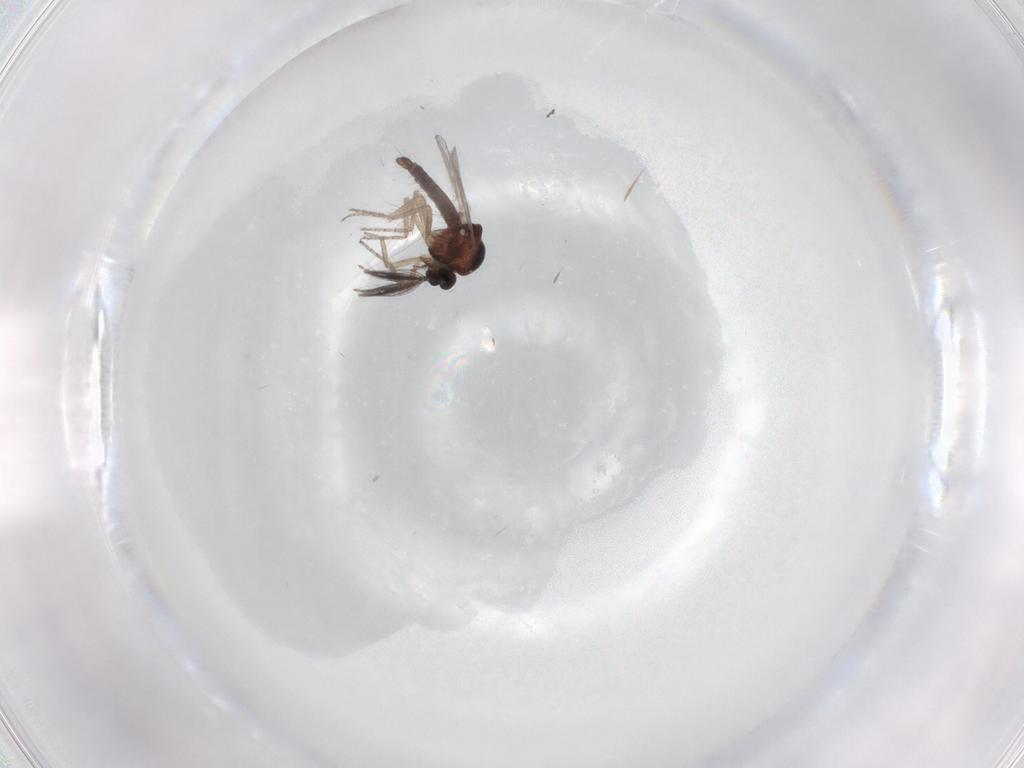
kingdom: Animalia
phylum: Arthropoda
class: Insecta
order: Diptera
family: Ceratopogonidae
